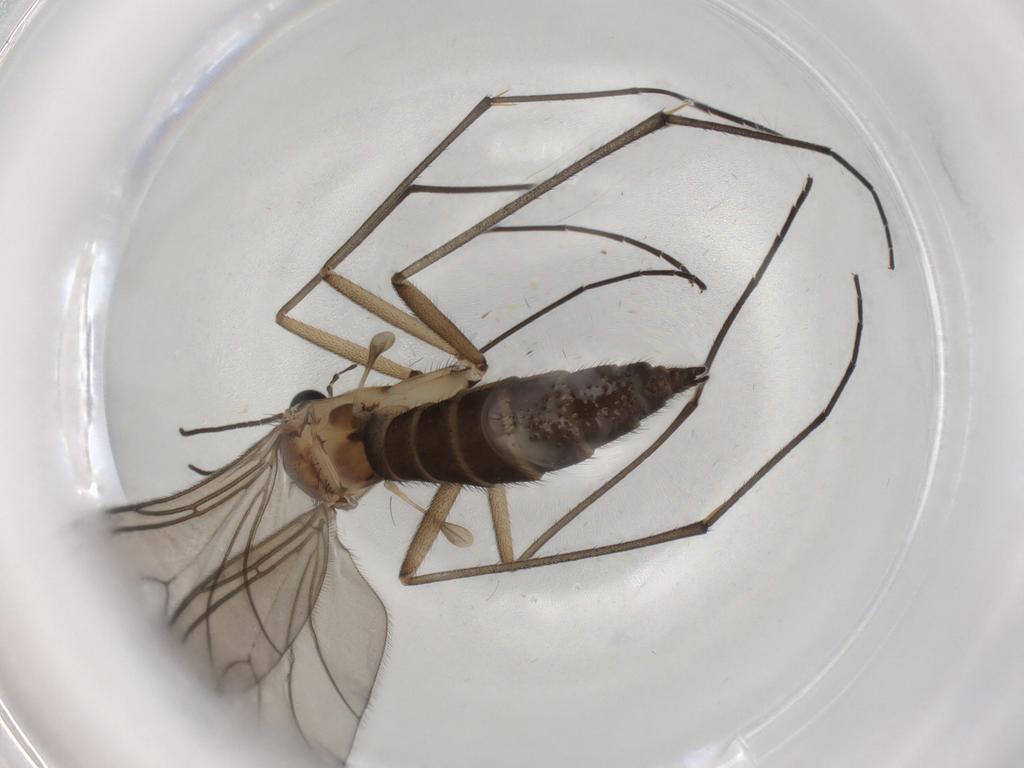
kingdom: Animalia
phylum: Arthropoda
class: Insecta
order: Diptera
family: Sciaridae
